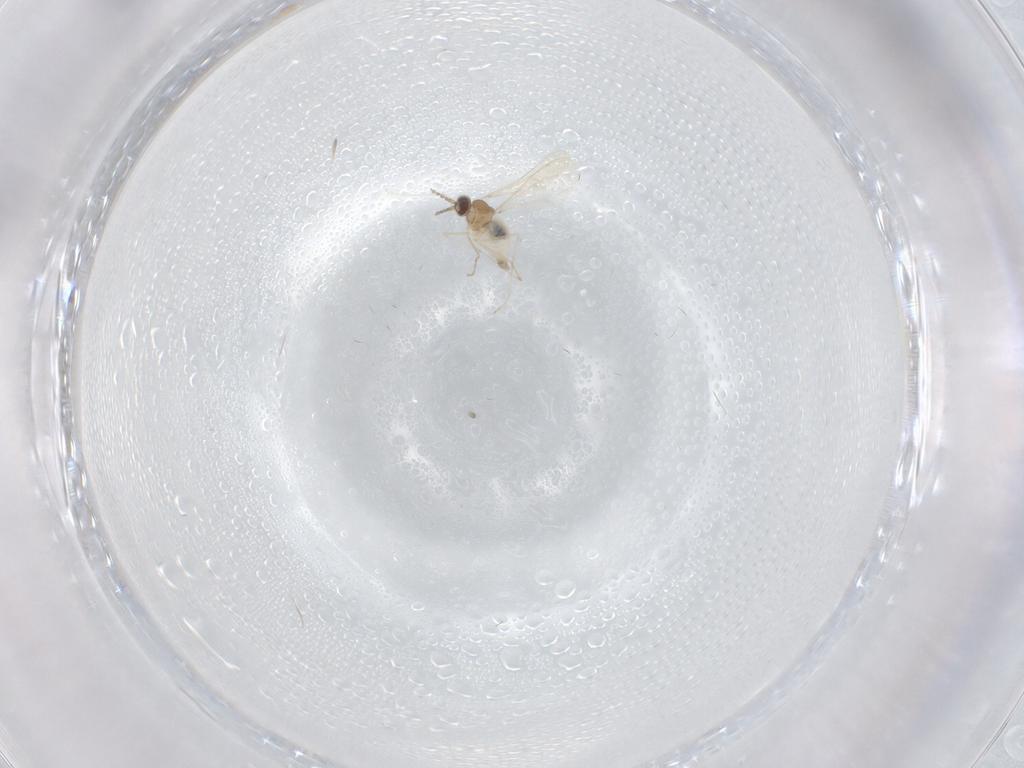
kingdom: Animalia
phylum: Arthropoda
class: Insecta
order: Diptera
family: Cecidomyiidae
